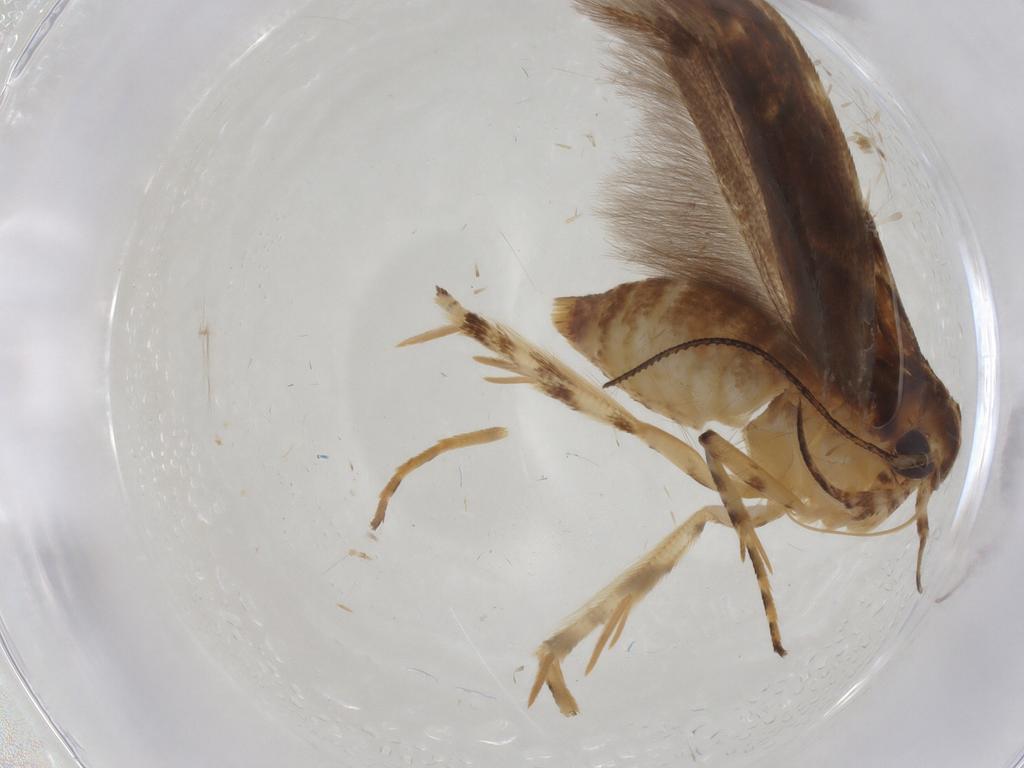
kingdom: Animalia
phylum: Arthropoda
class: Insecta
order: Lepidoptera
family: Gelechiidae
